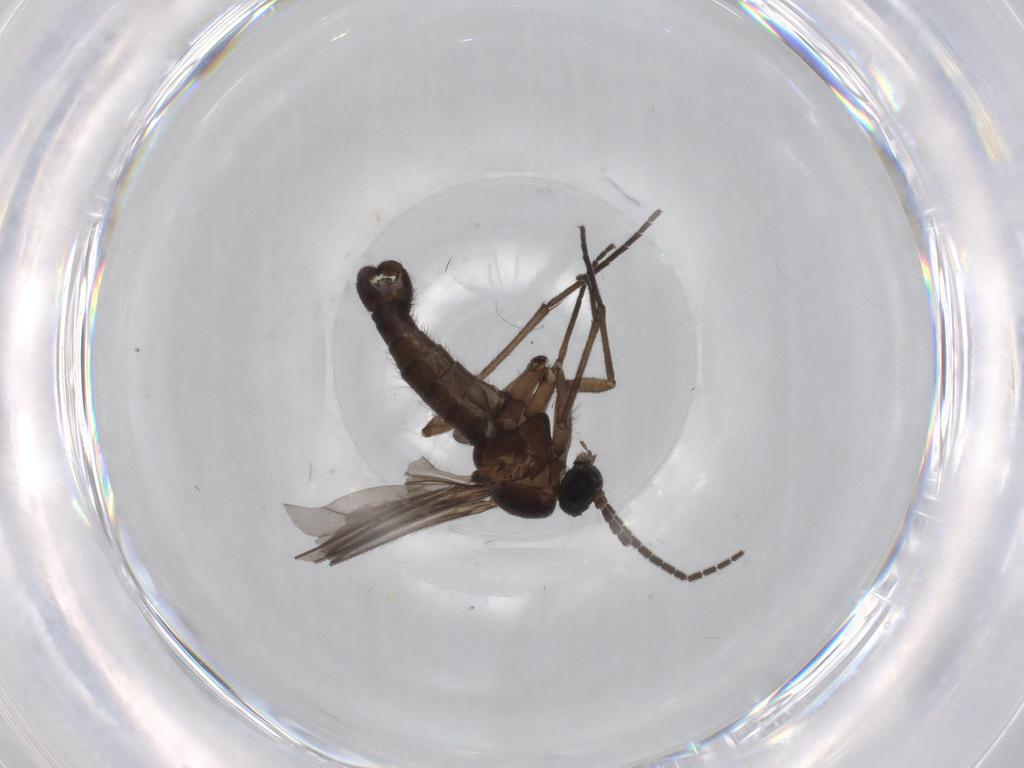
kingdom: Animalia
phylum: Arthropoda
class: Insecta
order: Diptera
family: Sciaridae
